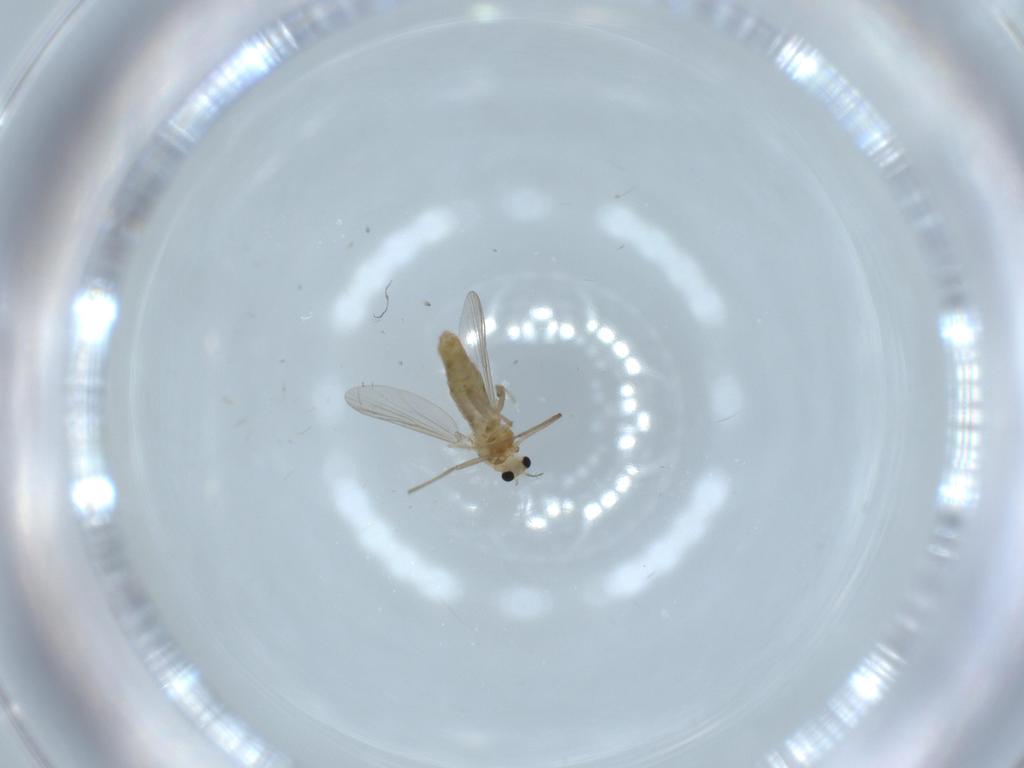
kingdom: Animalia
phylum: Arthropoda
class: Insecta
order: Diptera
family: Chironomidae
